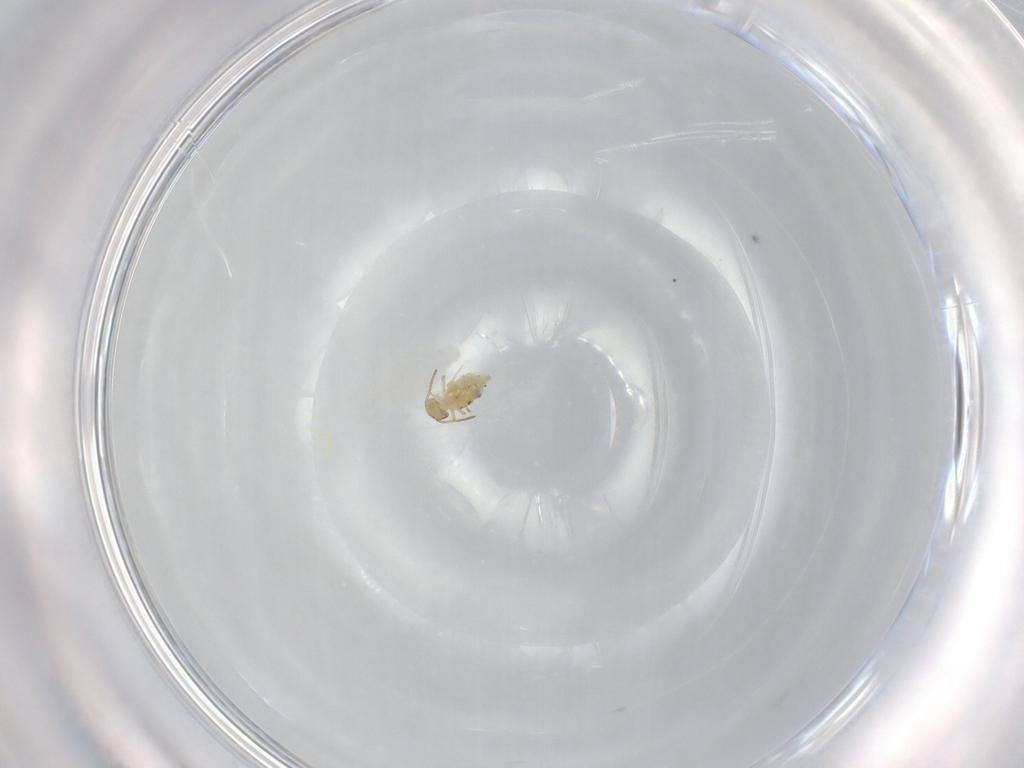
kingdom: Animalia
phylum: Arthropoda
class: Collembola
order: Symphypleona
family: Bourletiellidae
